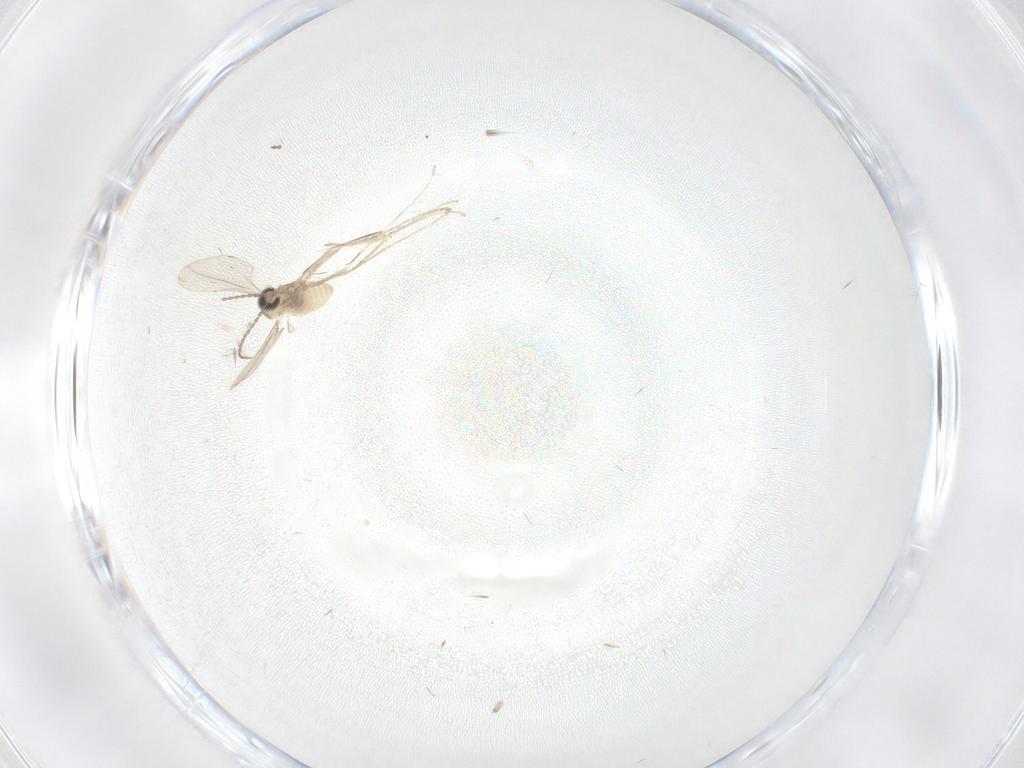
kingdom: Animalia
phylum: Arthropoda
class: Insecta
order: Diptera
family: Cecidomyiidae
